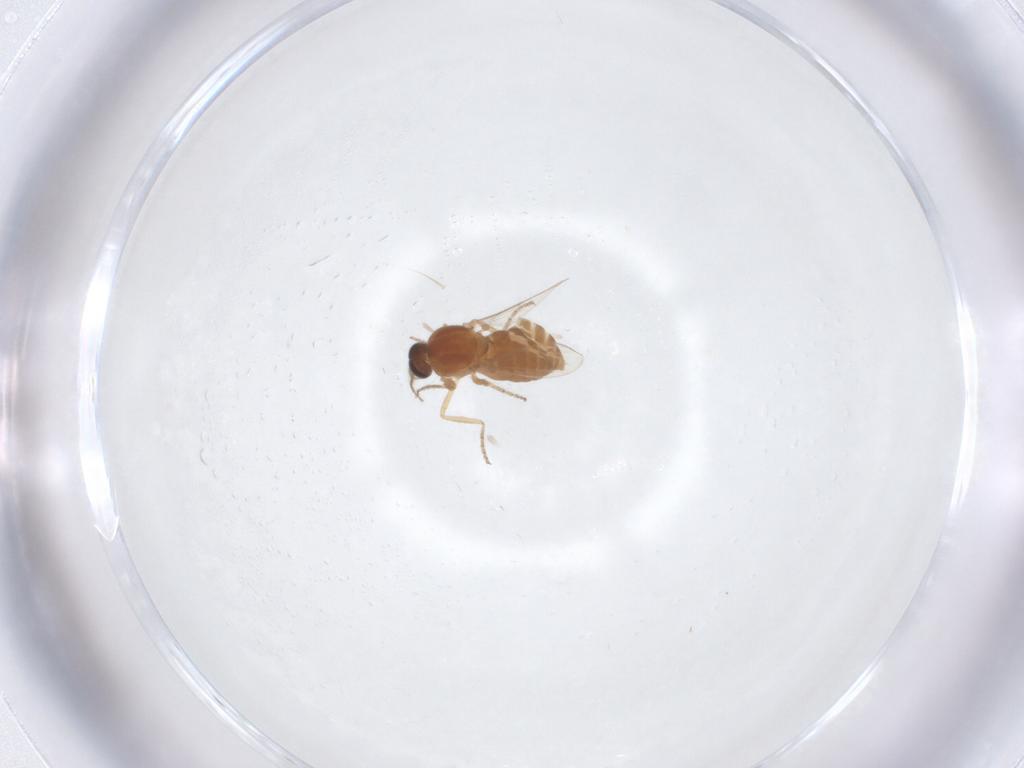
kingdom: Animalia
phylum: Arthropoda
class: Insecta
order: Diptera
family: Ceratopogonidae
